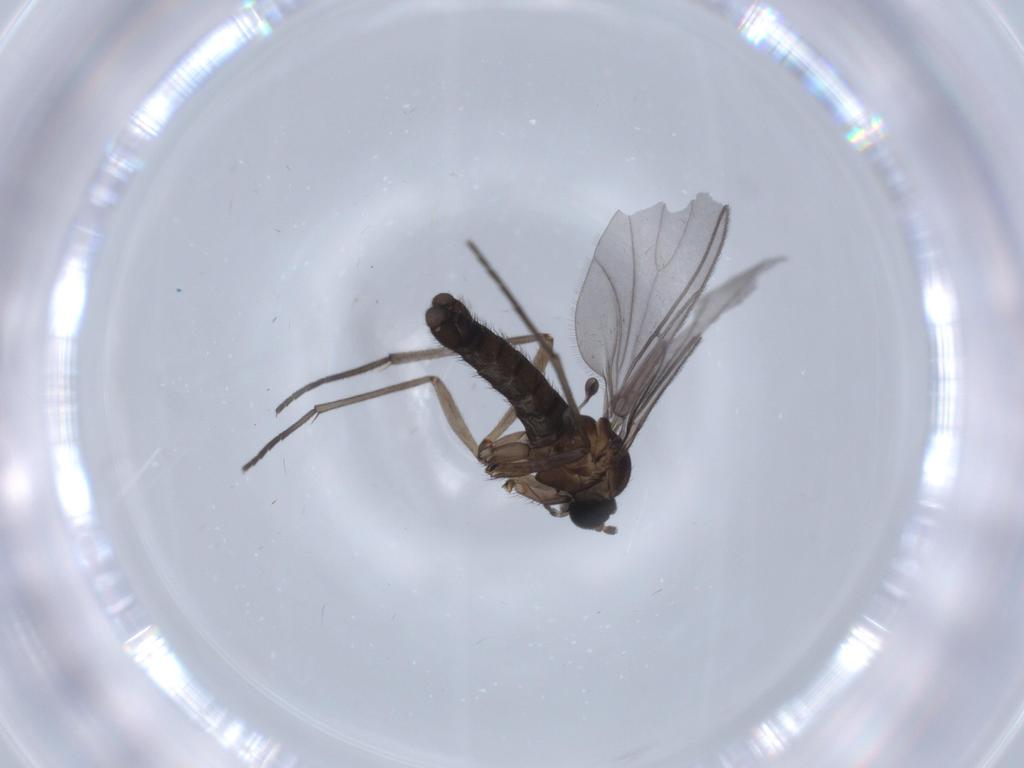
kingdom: Animalia
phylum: Arthropoda
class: Insecta
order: Diptera
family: Sciaridae
